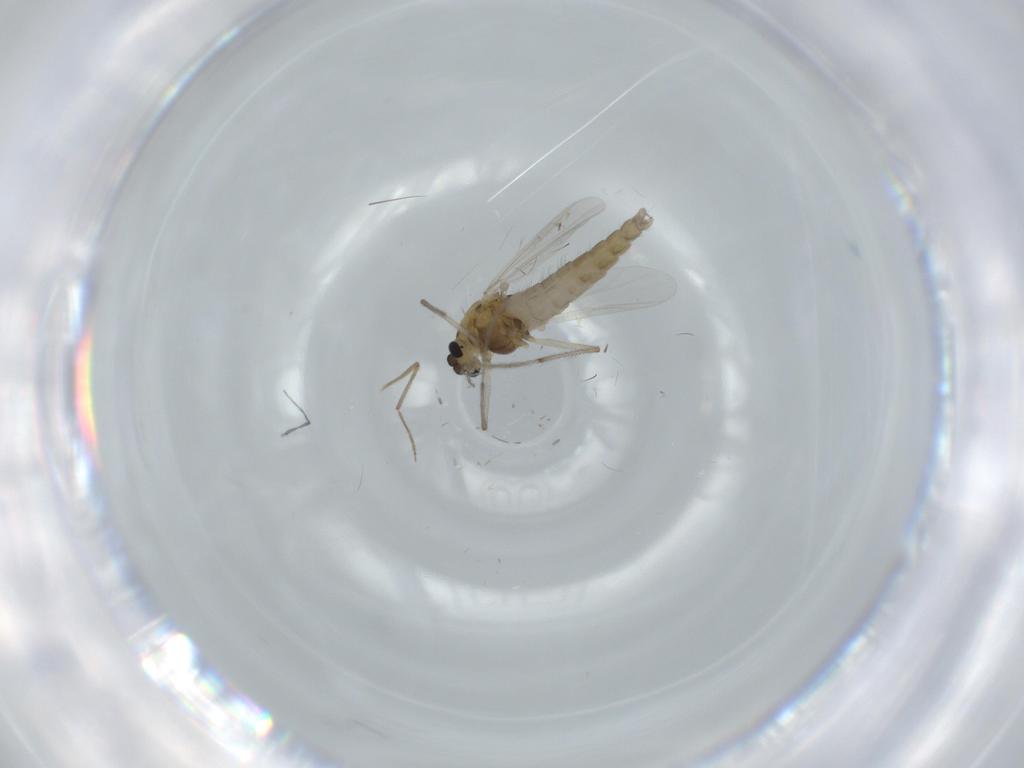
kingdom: Animalia
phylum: Arthropoda
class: Insecta
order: Diptera
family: Chironomidae
